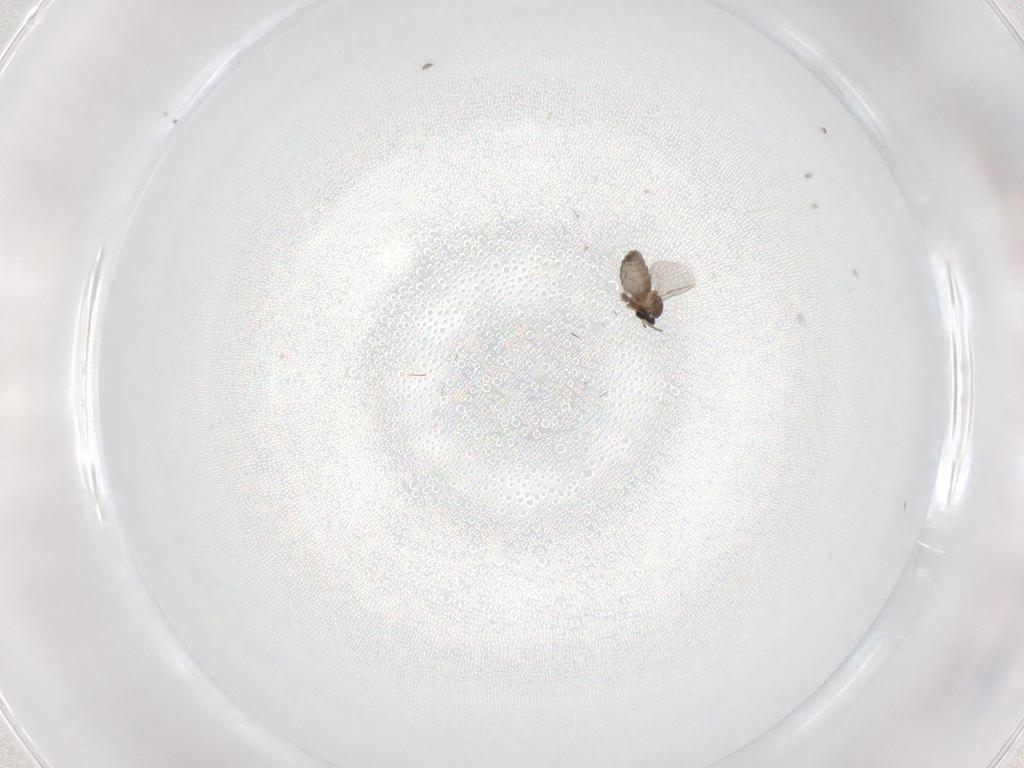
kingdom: Animalia
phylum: Arthropoda
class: Insecta
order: Diptera
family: Cecidomyiidae
